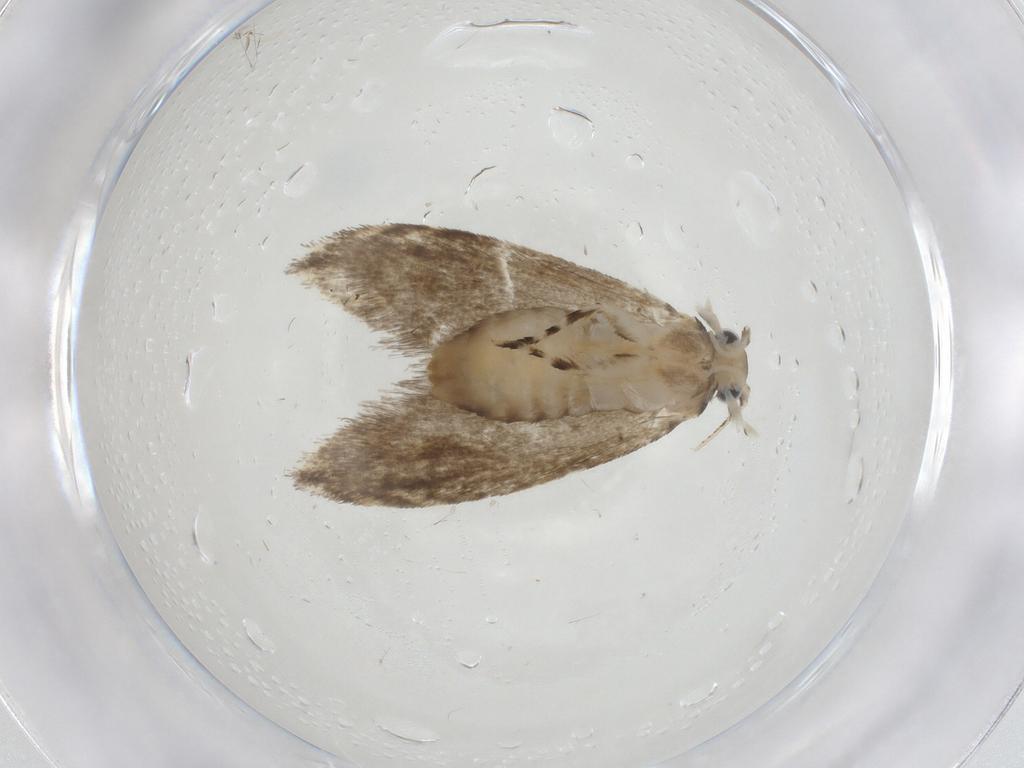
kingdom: Animalia
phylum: Arthropoda
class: Insecta
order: Lepidoptera
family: Tineidae
